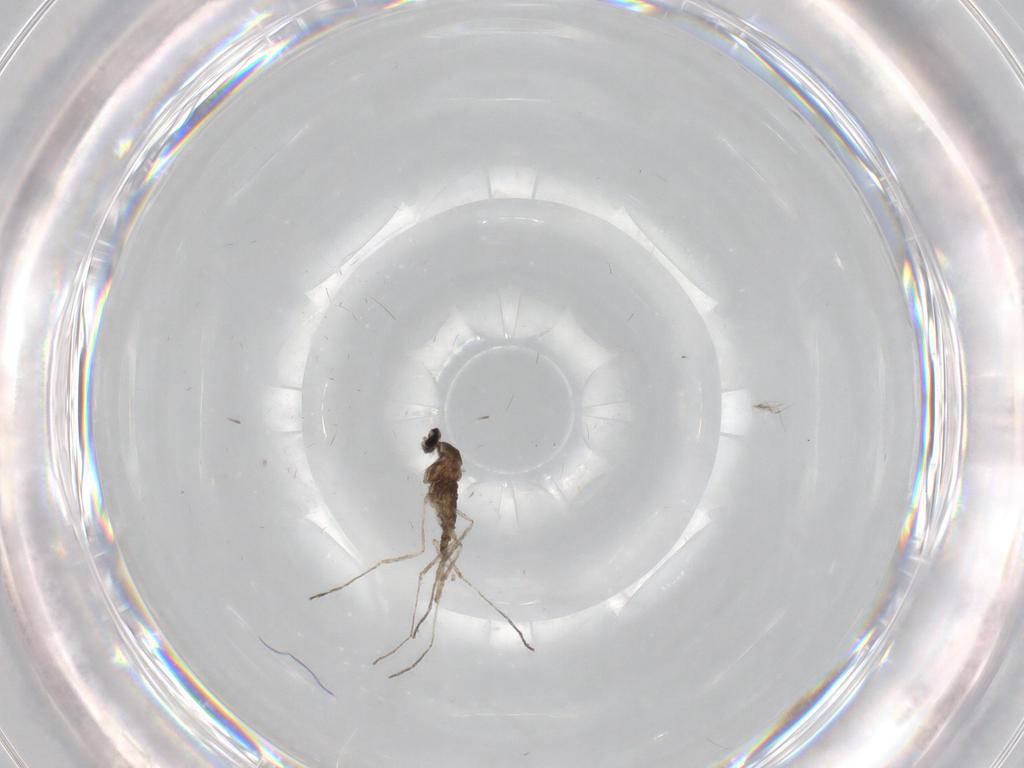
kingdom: Animalia
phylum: Arthropoda
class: Insecta
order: Diptera
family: Cecidomyiidae
